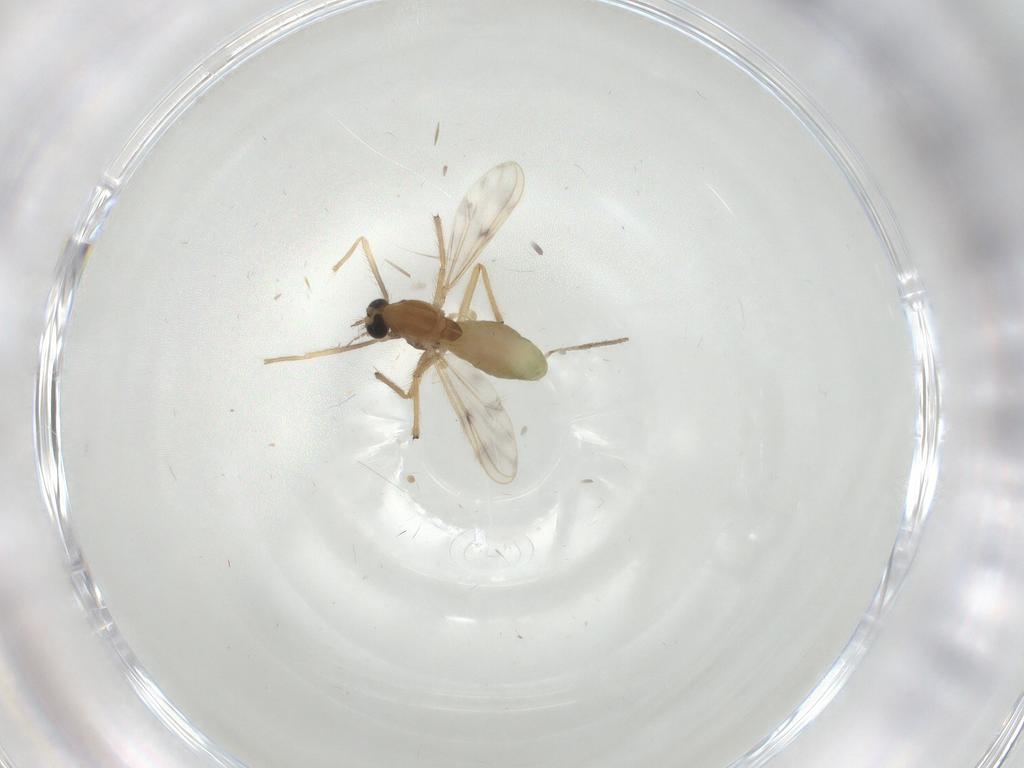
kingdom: Animalia
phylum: Arthropoda
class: Insecta
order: Diptera
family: Chironomidae
